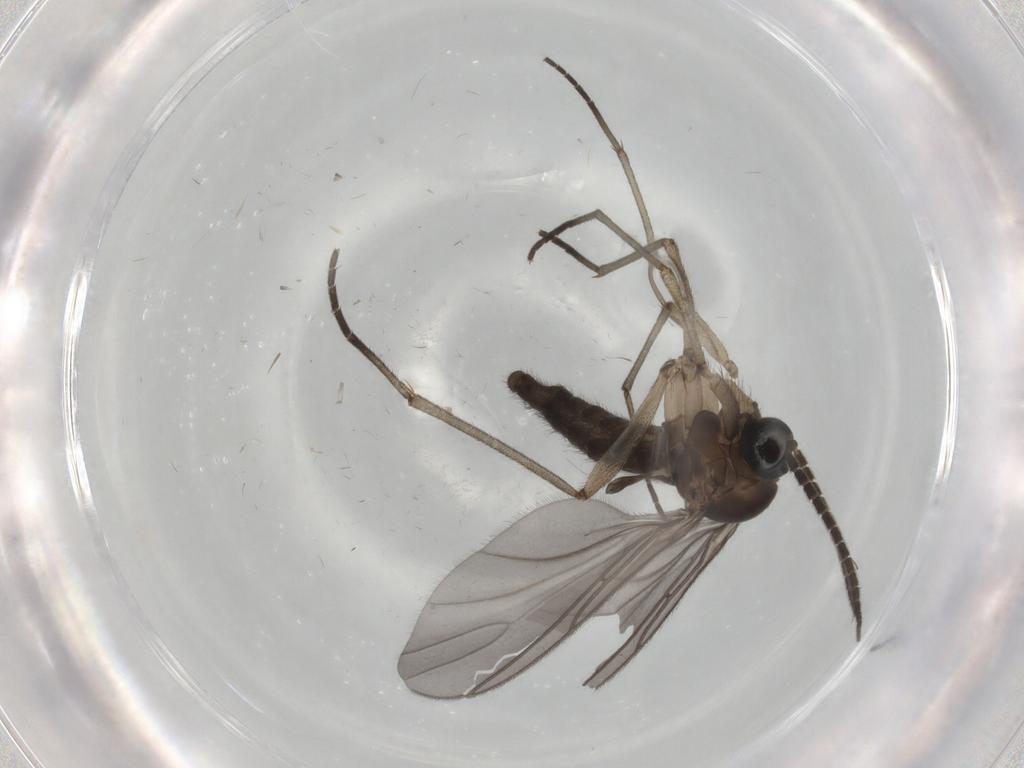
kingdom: Animalia
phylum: Arthropoda
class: Insecta
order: Diptera
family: Sciaridae
